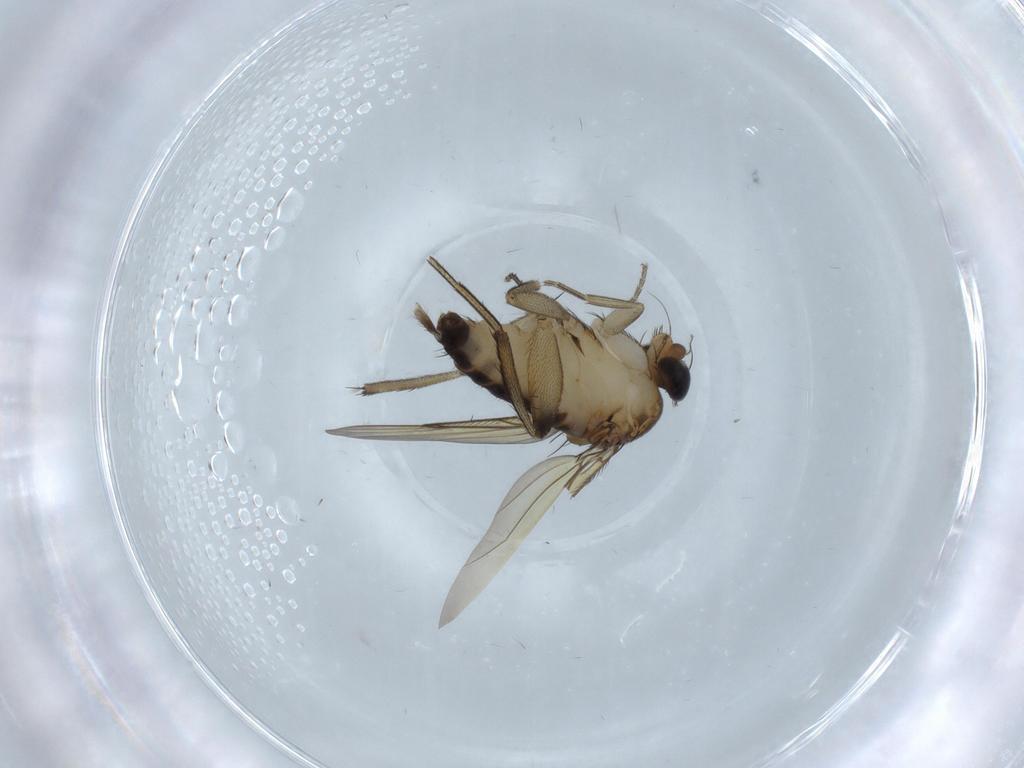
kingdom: Animalia
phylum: Arthropoda
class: Insecta
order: Diptera
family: Phoridae
